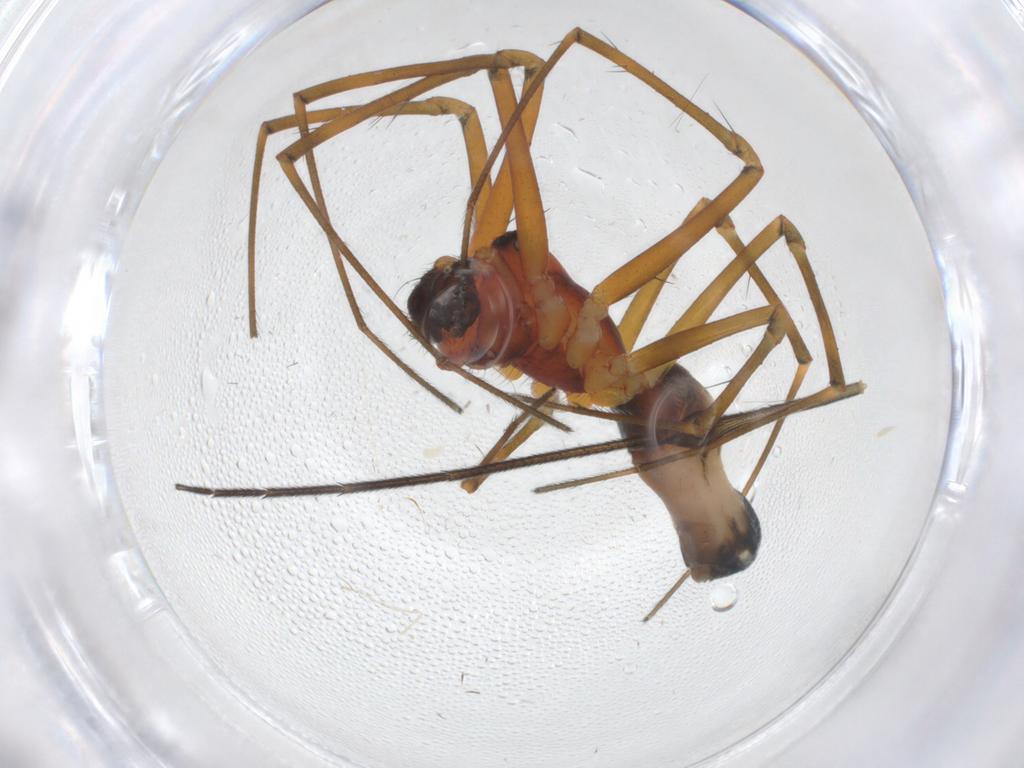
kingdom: Animalia
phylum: Arthropoda
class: Arachnida
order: Araneae
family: Linyphiidae
